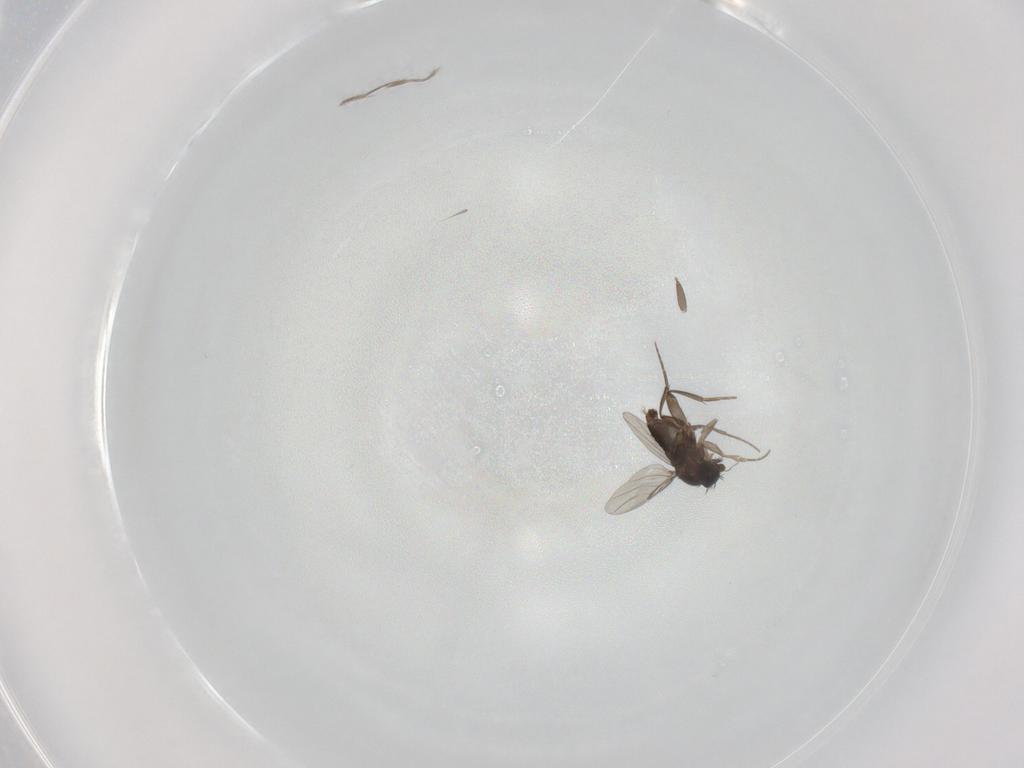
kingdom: Animalia
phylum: Arthropoda
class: Insecta
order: Diptera
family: Phoridae
